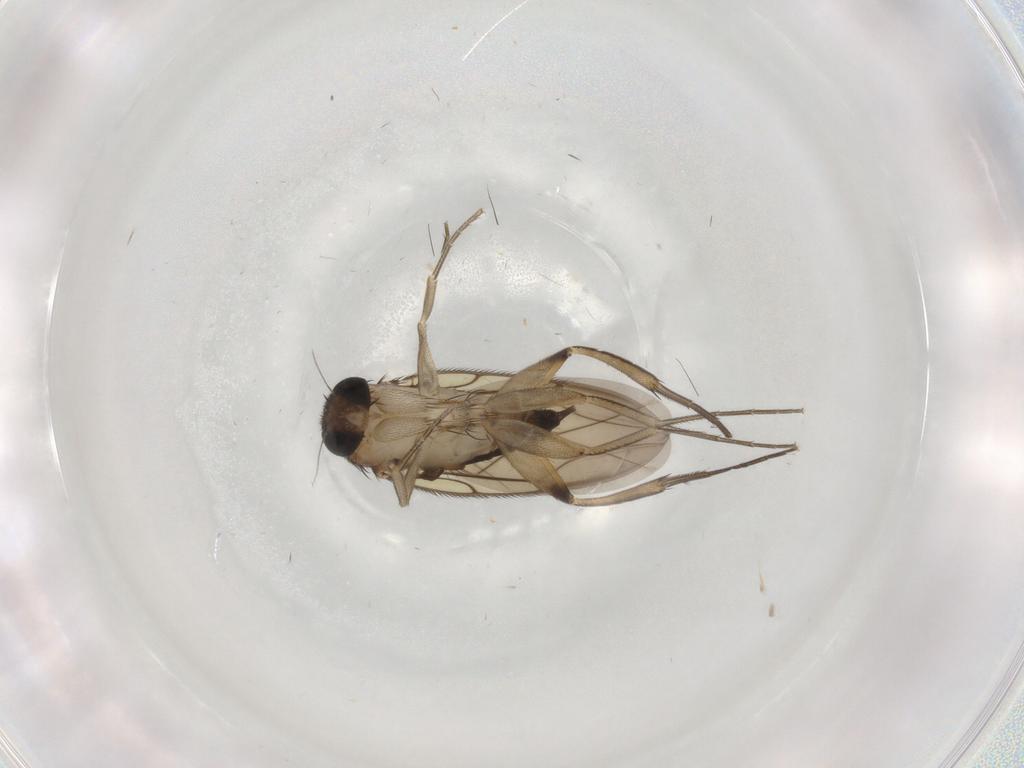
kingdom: Animalia
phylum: Arthropoda
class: Insecta
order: Diptera
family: Phoridae
